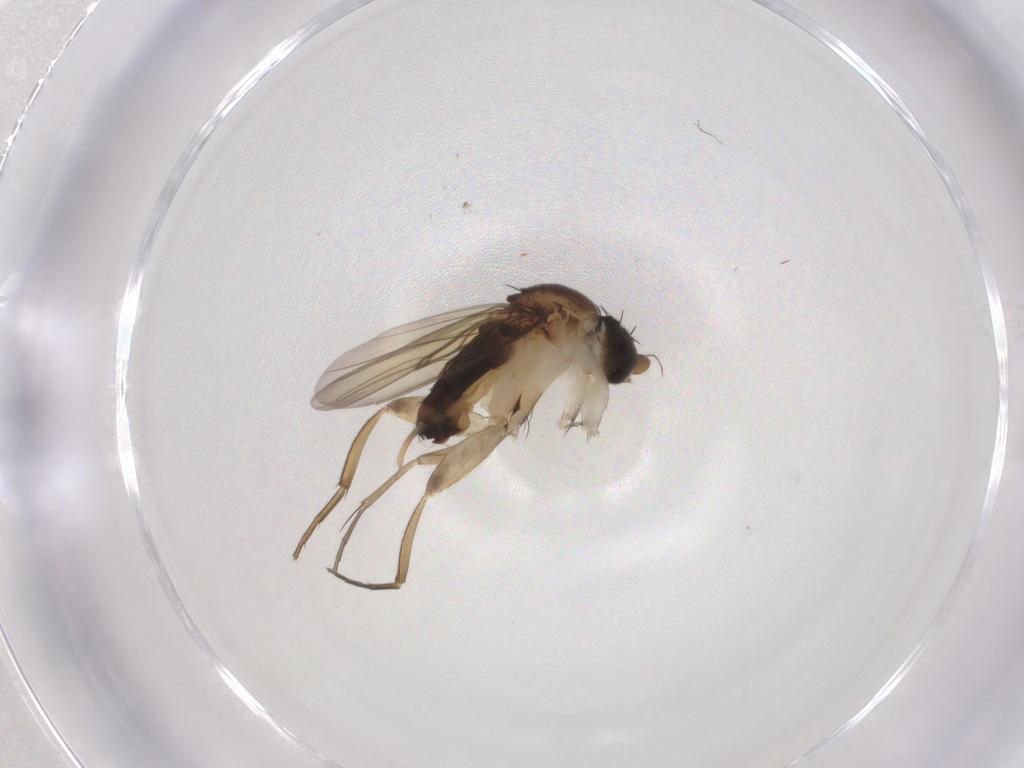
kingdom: Animalia
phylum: Arthropoda
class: Insecta
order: Diptera
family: Phoridae
